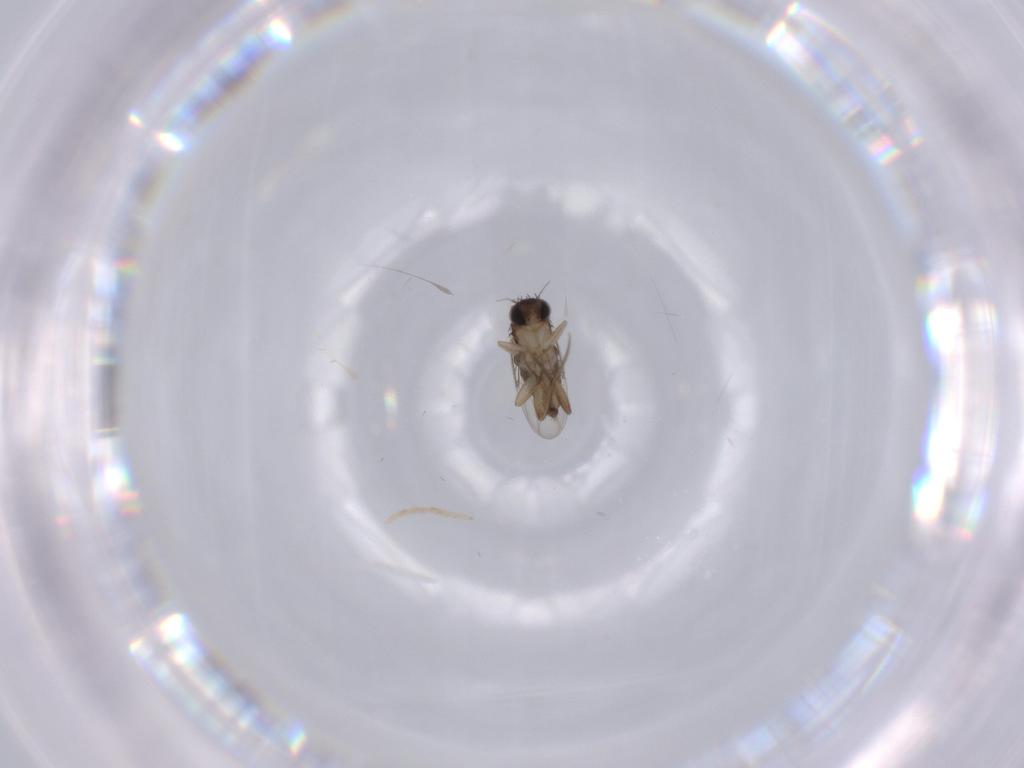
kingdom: Animalia
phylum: Arthropoda
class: Insecta
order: Diptera
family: Phoridae
